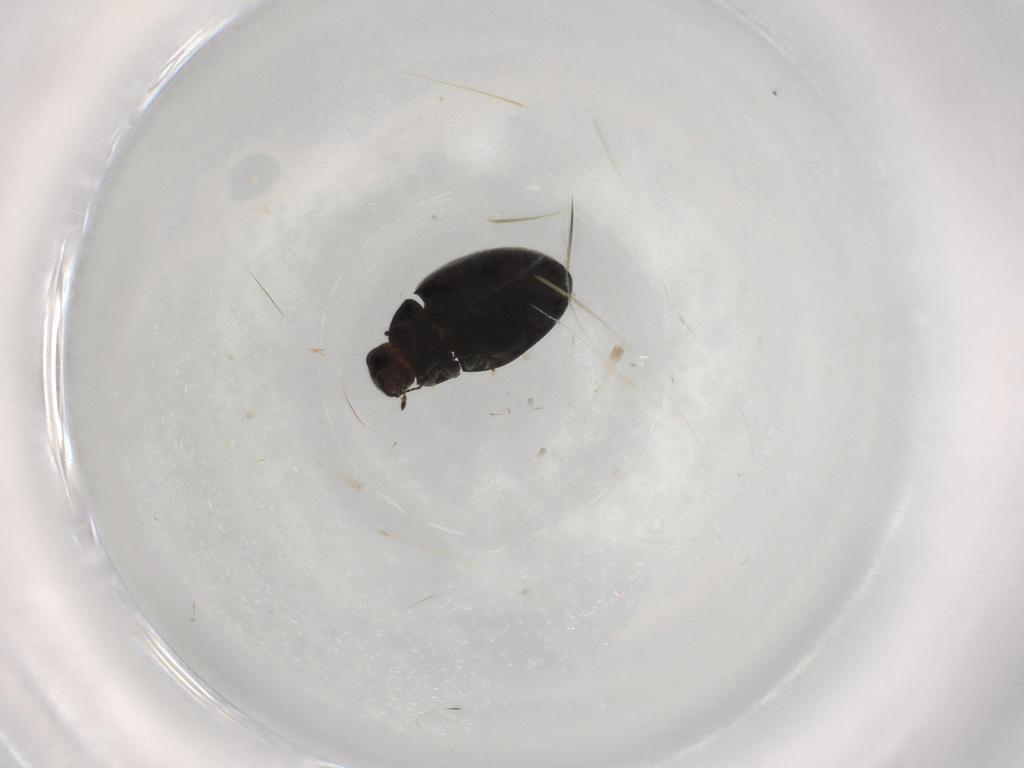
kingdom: Animalia
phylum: Arthropoda
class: Insecta
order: Coleoptera
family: Limnichidae
